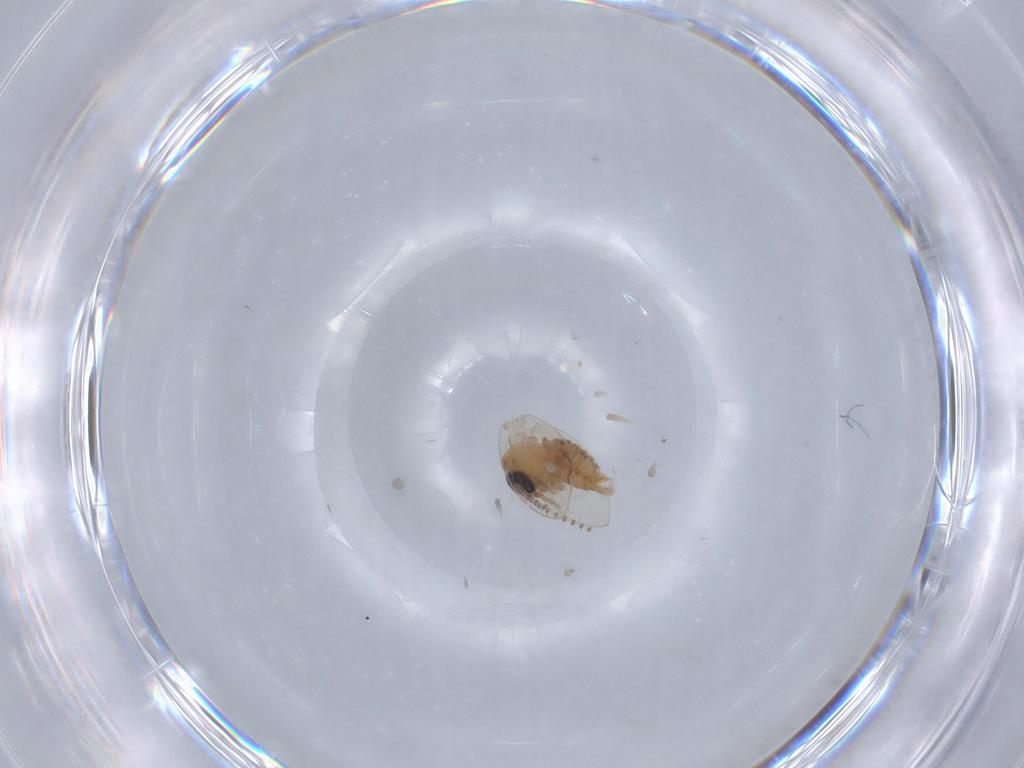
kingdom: Animalia
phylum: Arthropoda
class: Insecta
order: Diptera
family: Psychodidae
